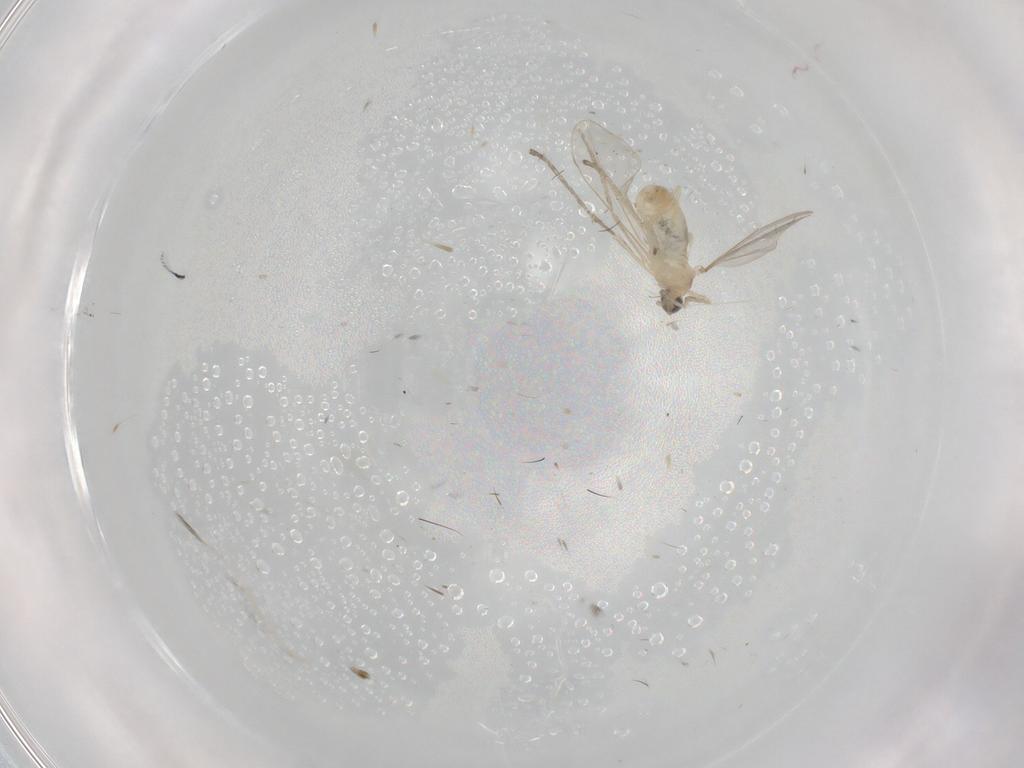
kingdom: Animalia
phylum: Arthropoda
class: Insecta
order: Diptera
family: Cecidomyiidae
